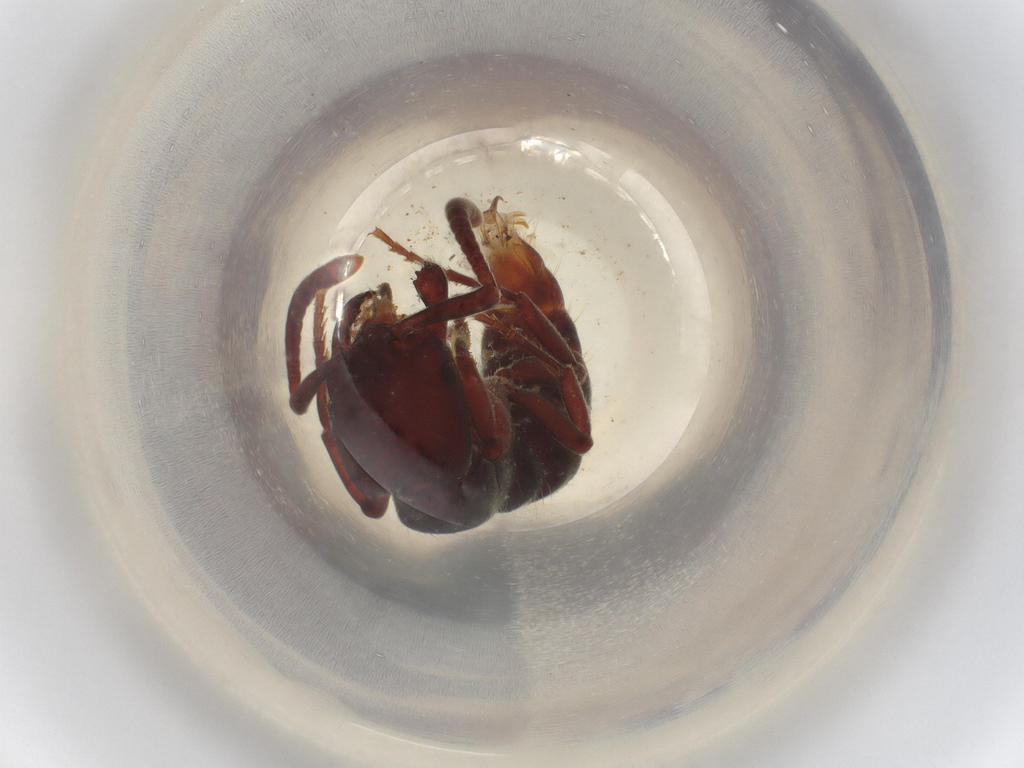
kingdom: Animalia
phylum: Arthropoda
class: Insecta
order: Hymenoptera
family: Formicidae
